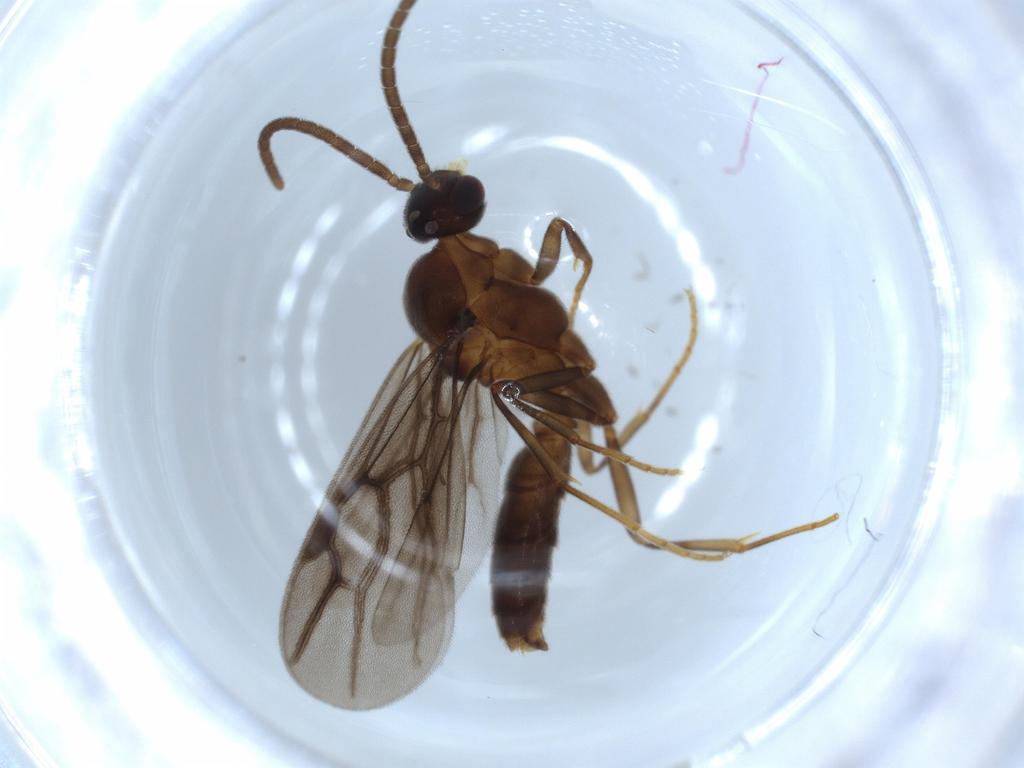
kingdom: Animalia
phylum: Arthropoda
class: Insecta
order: Hymenoptera
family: Formicidae
